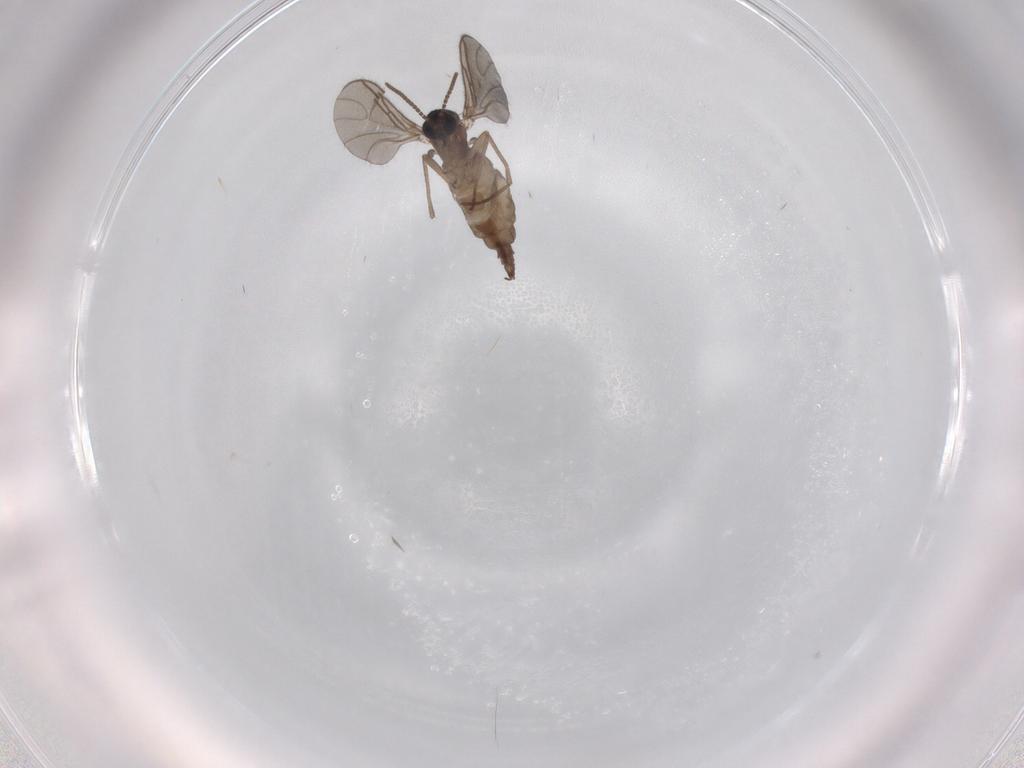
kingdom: Animalia
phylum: Arthropoda
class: Insecta
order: Diptera
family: Sciaridae
